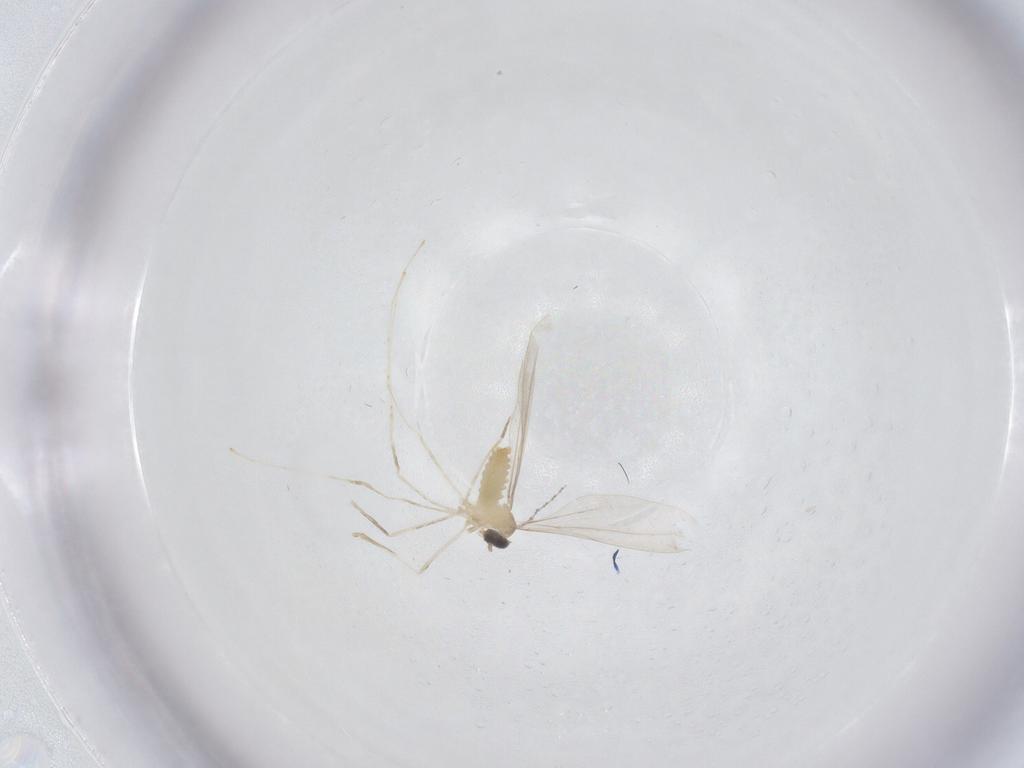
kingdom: Animalia
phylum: Arthropoda
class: Insecta
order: Diptera
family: Cecidomyiidae
